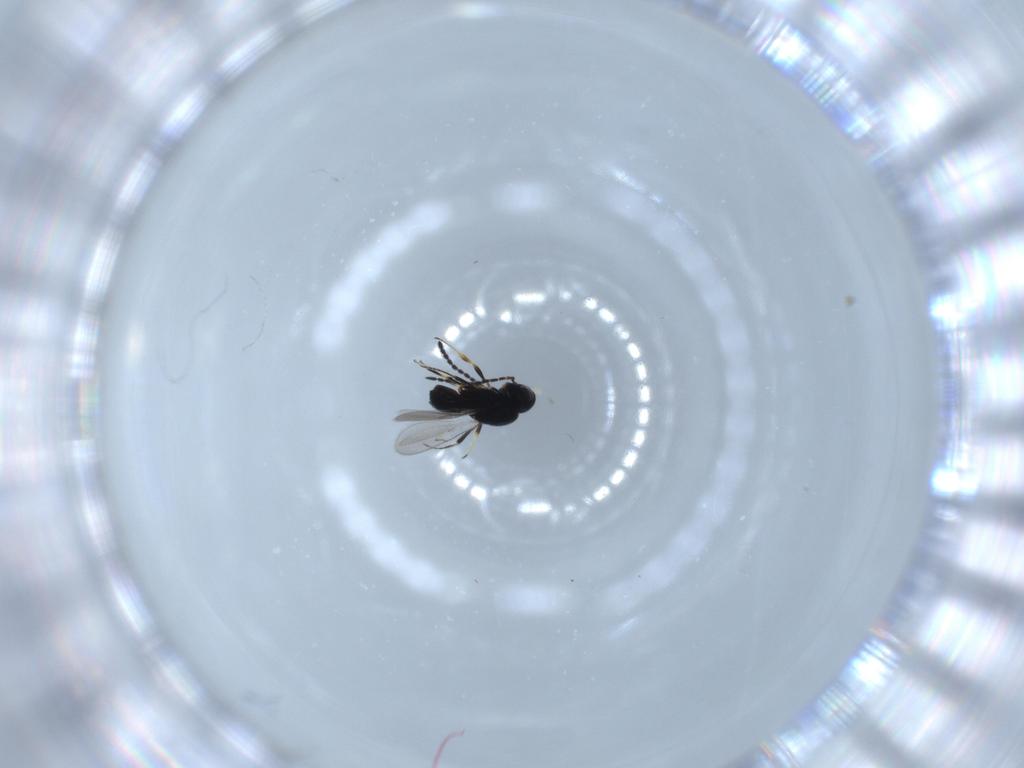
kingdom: Animalia
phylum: Arthropoda
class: Insecta
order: Hymenoptera
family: Scelionidae
